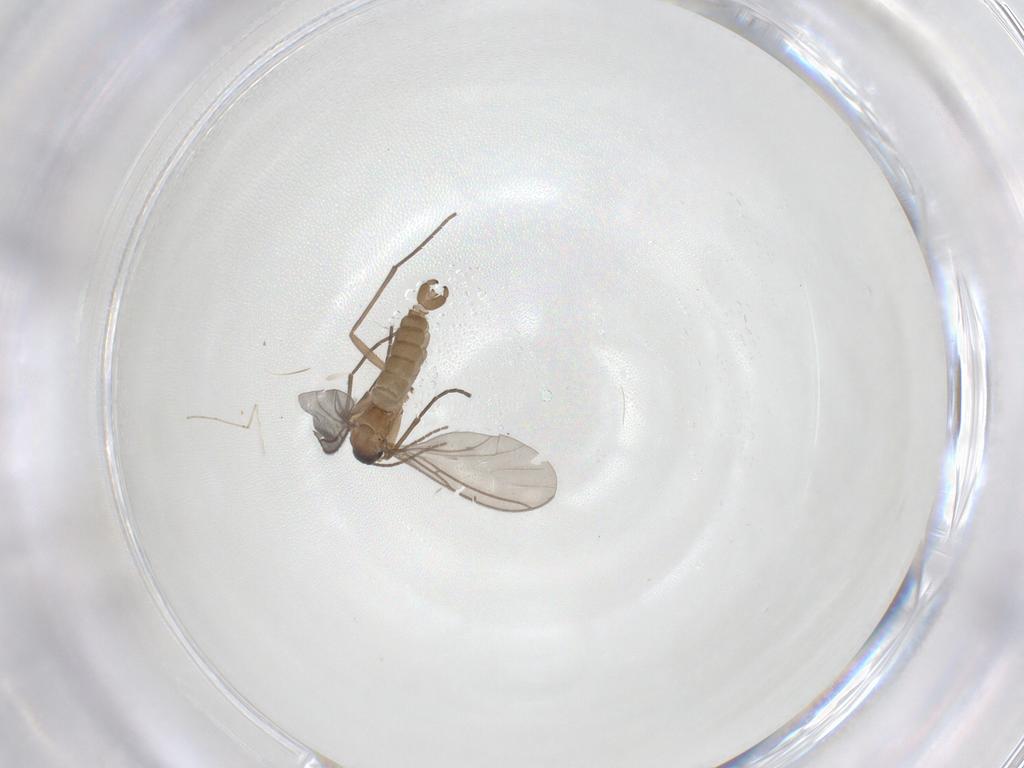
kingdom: Animalia
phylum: Arthropoda
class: Insecta
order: Diptera
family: Sciaridae
